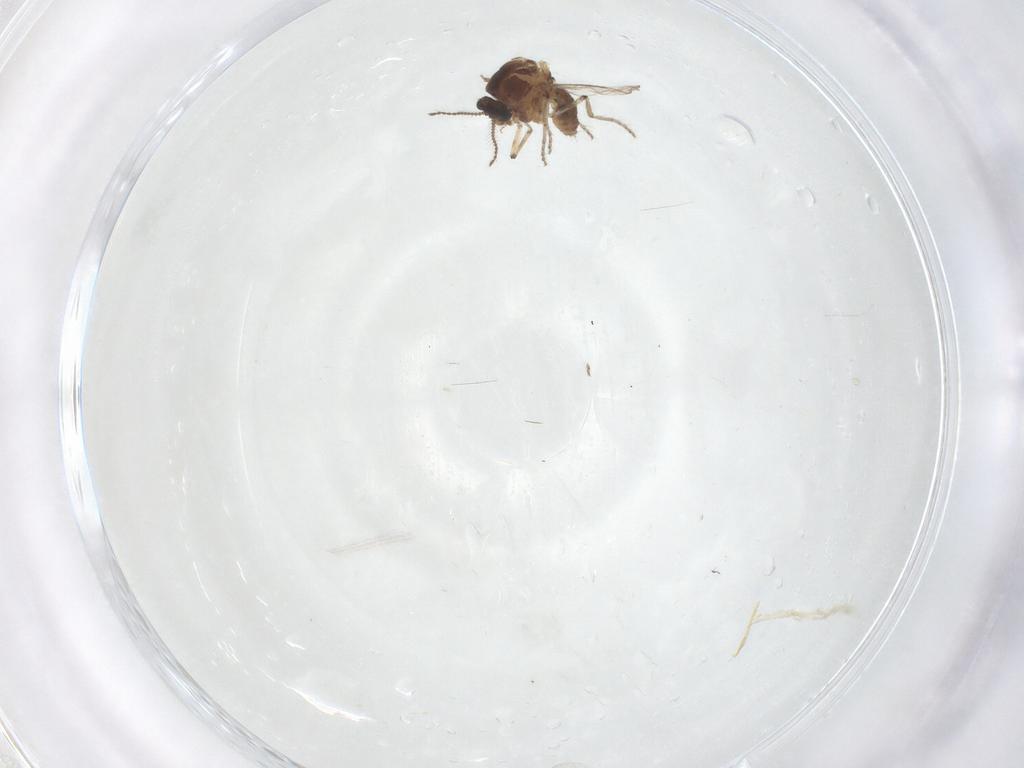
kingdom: Animalia
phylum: Arthropoda
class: Insecta
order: Diptera
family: Ceratopogonidae
